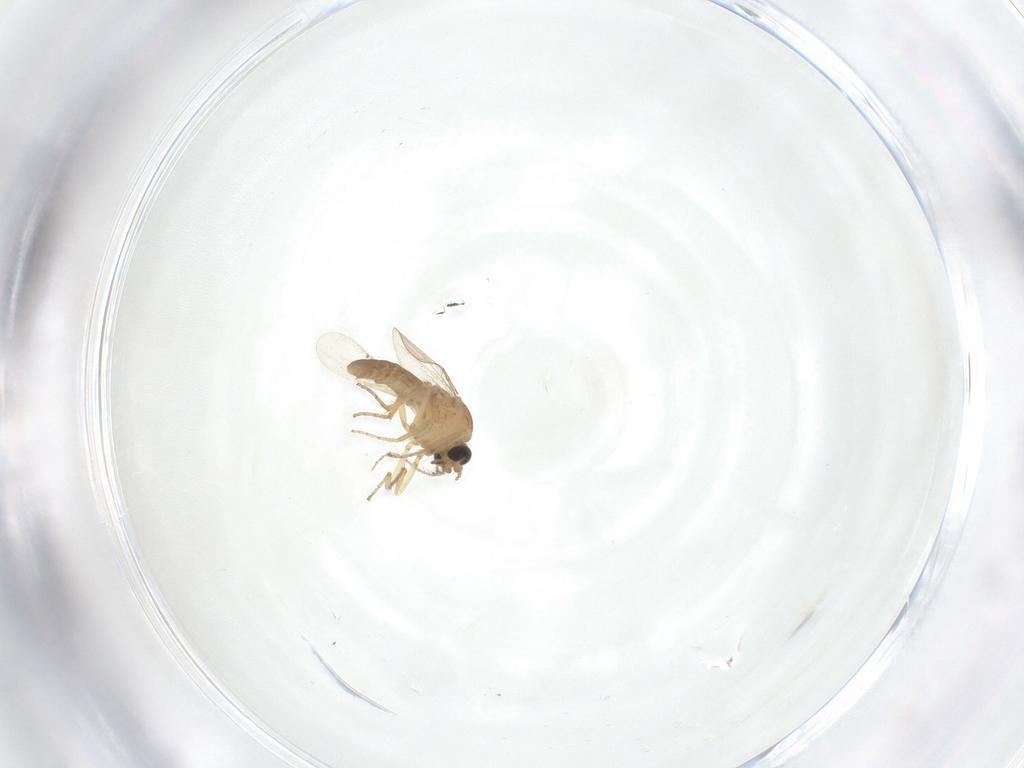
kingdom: Animalia
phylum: Arthropoda
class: Insecta
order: Diptera
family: Ceratopogonidae
